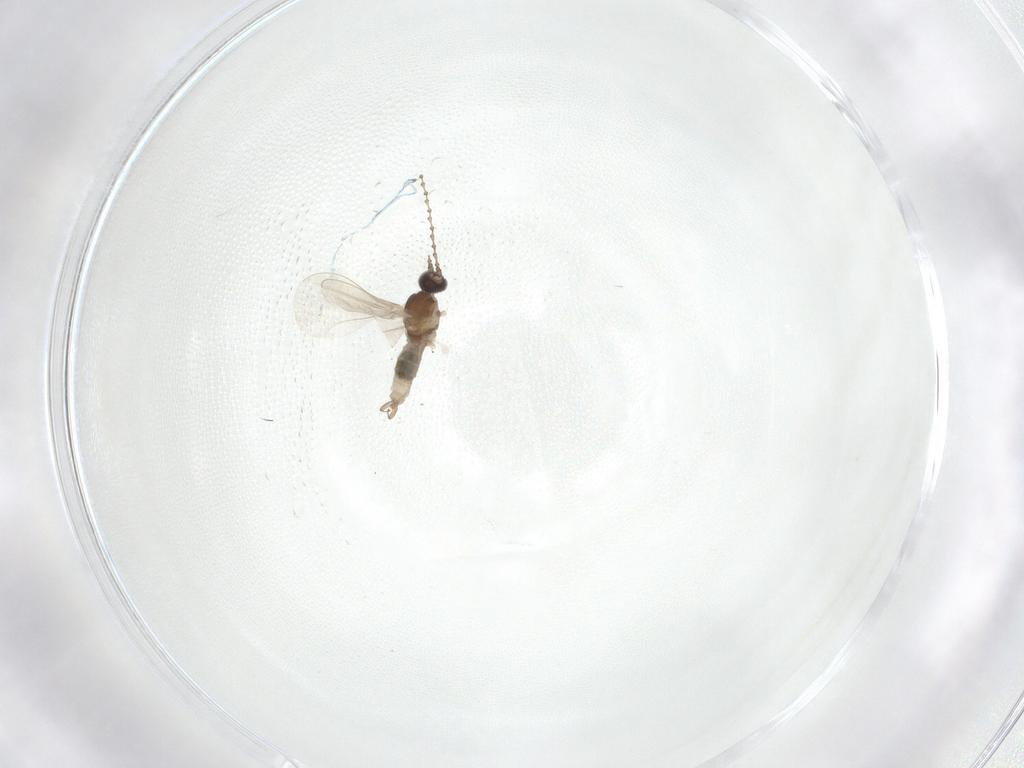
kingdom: Animalia
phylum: Arthropoda
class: Insecta
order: Diptera
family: Cecidomyiidae
